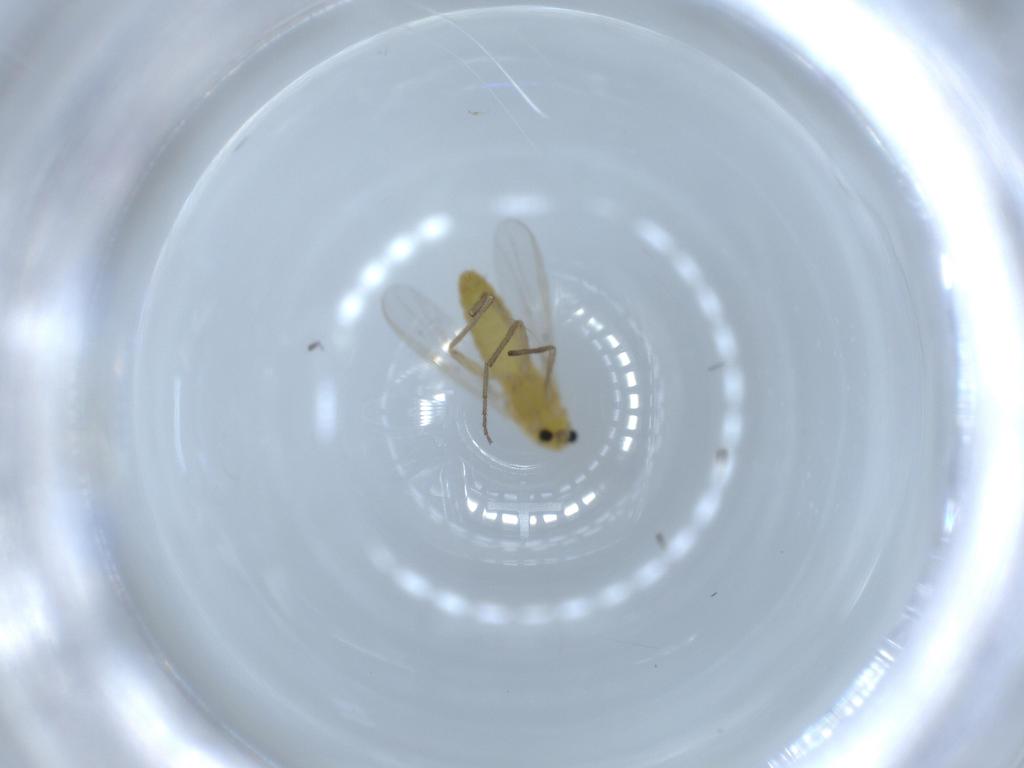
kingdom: Animalia
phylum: Arthropoda
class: Insecta
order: Diptera
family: Chironomidae
